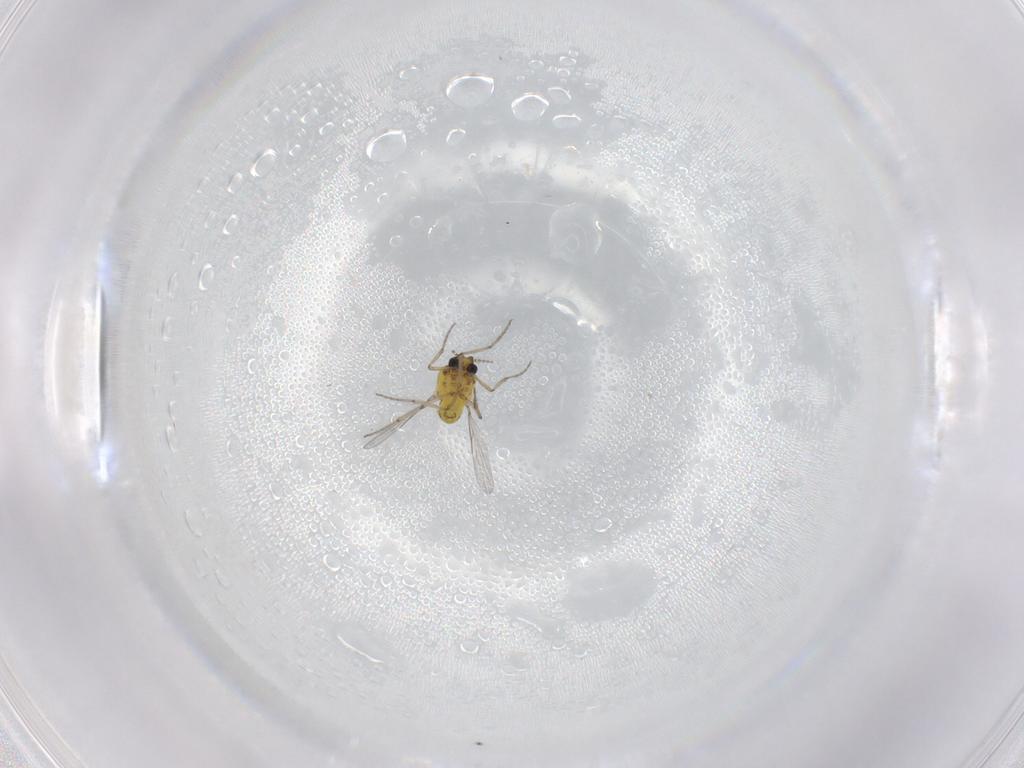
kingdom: Animalia
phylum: Arthropoda
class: Insecta
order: Diptera
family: Ceratopogonidae
